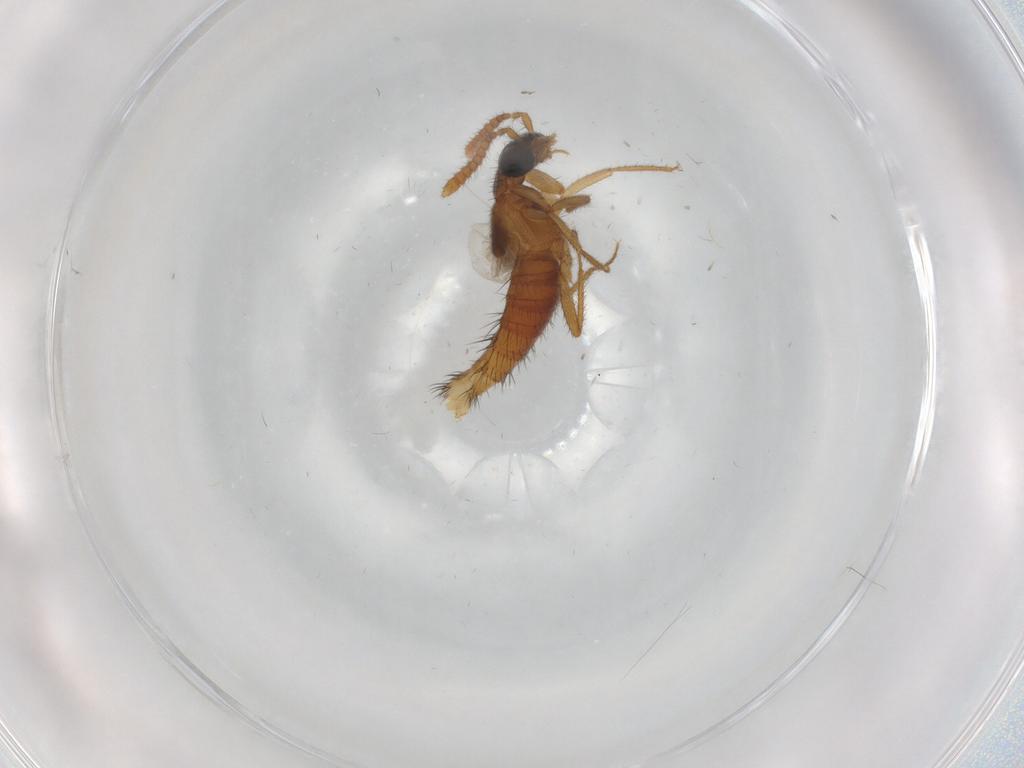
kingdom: Animalia
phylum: Arthropoda
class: Insecta
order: Coleoptera
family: Staphylinidae
